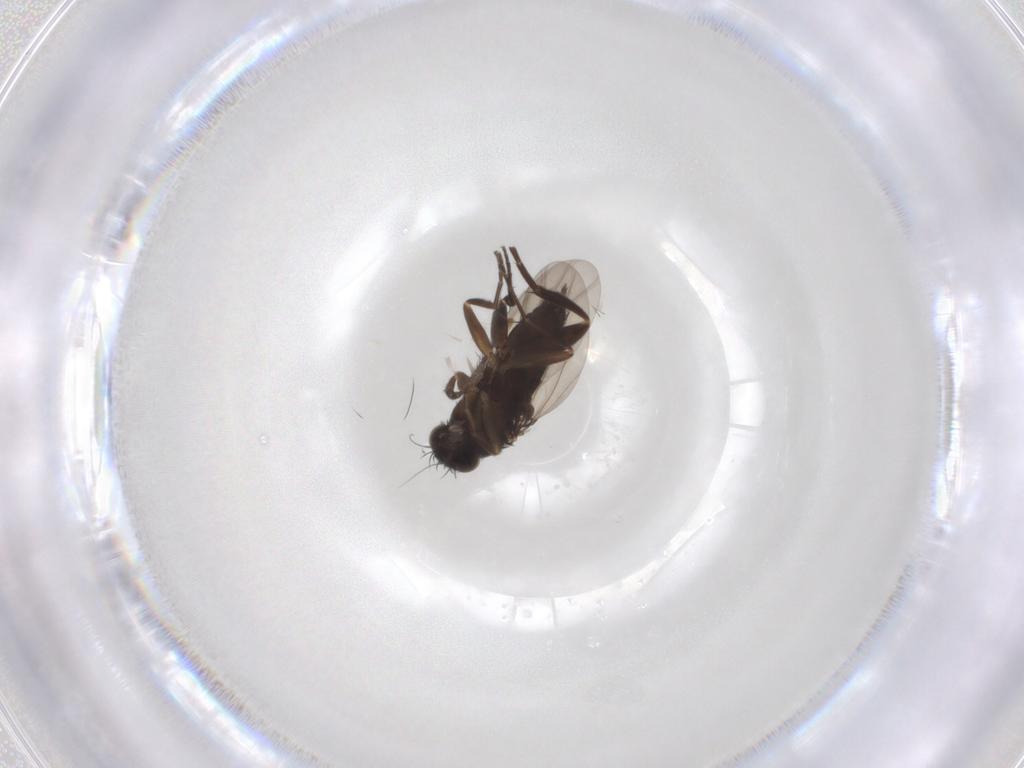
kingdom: Animalia
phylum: Arthropoda
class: Insecta
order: Diptera
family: Phoridae
